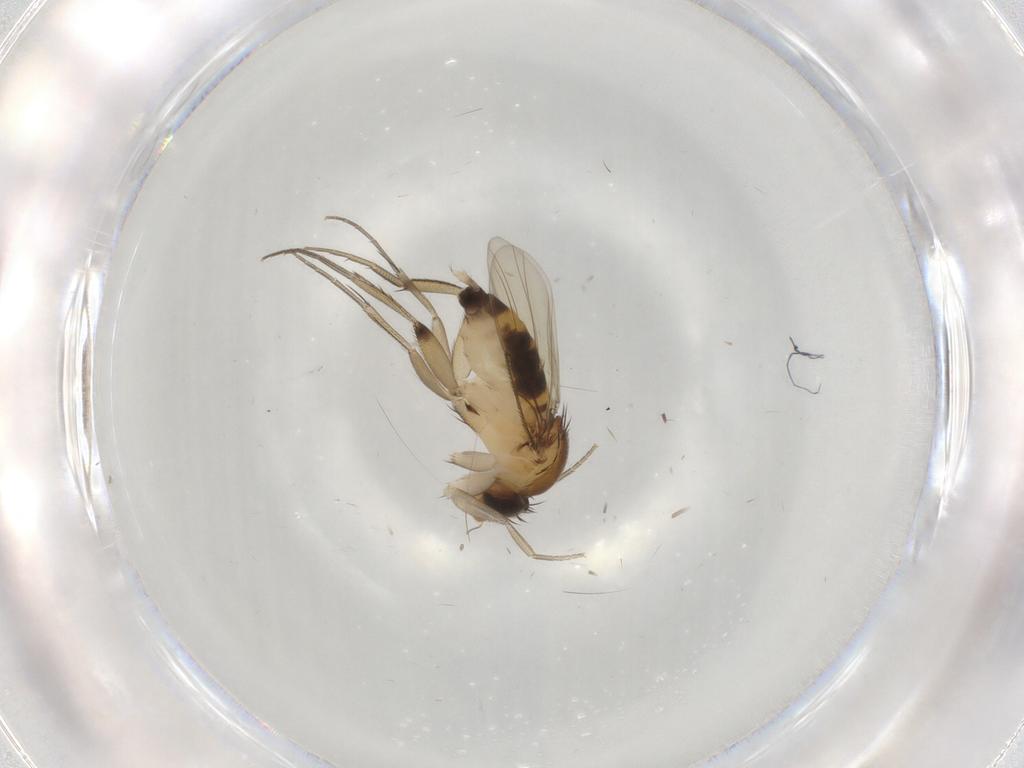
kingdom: Animalia
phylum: Arthropoda
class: Insecta
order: Diptera
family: Phoridae
